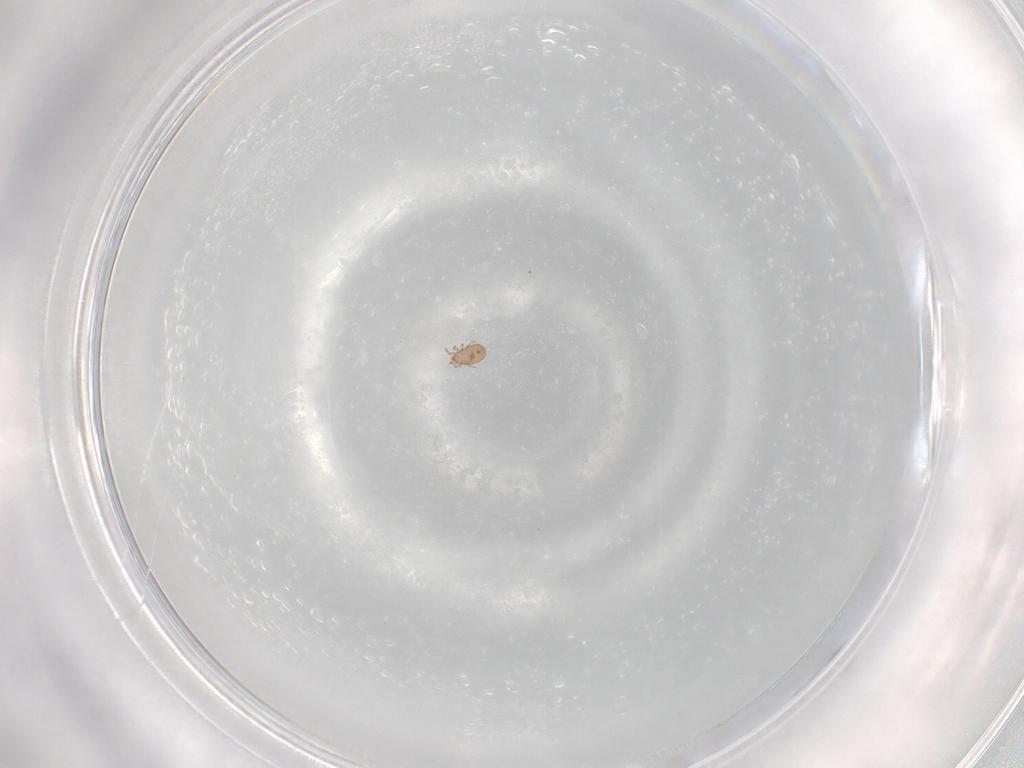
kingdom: Animalia
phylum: Arthropoda
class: Arachnida
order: Sarcoptiformes
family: Eremaeidae
